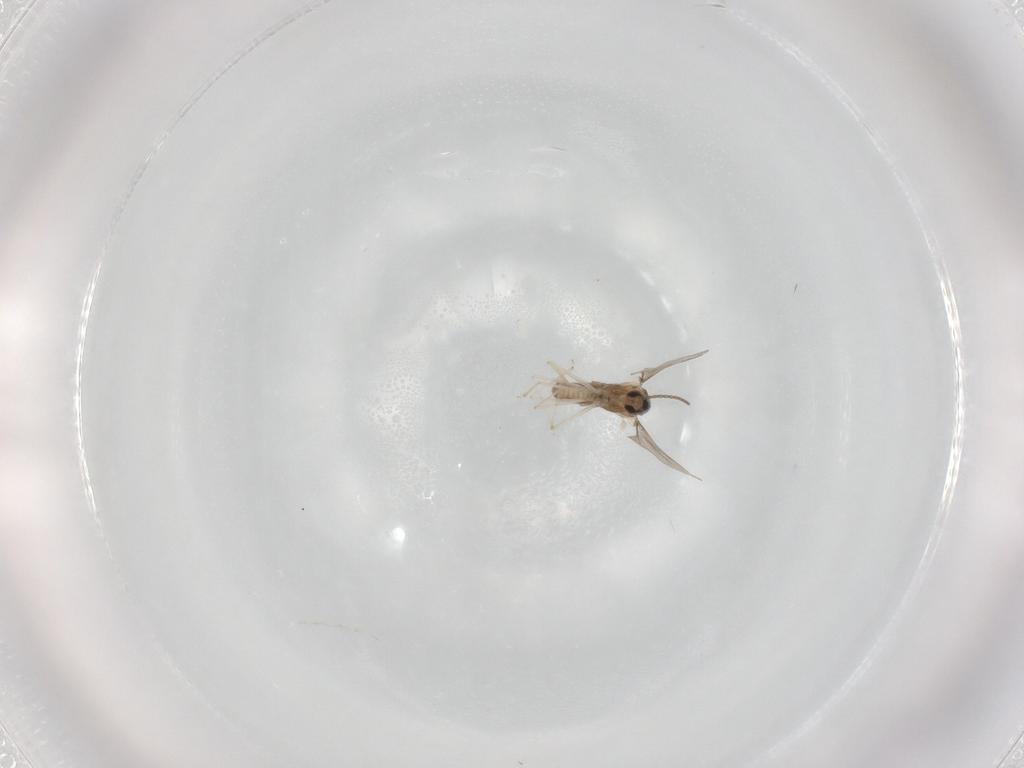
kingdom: Animalia
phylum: Arthropoda
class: Insecta
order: Diptera
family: Cecidomyiidae
